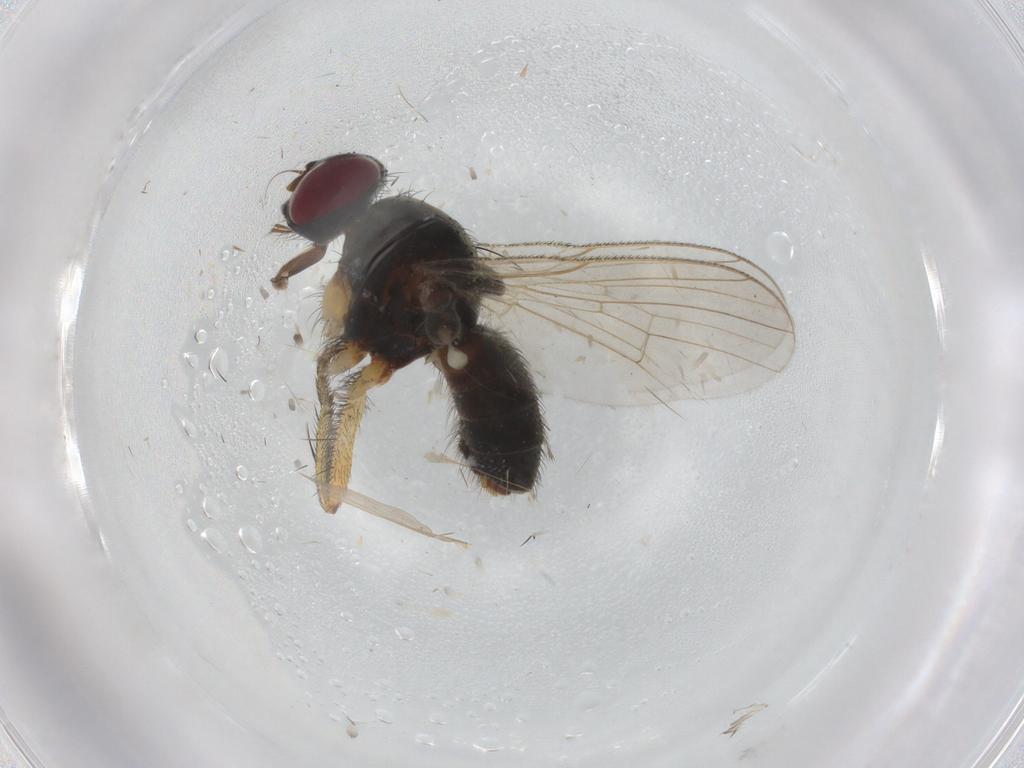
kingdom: Animalia
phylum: Arthropoda
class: Insecta
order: Diptera
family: Muscidae
